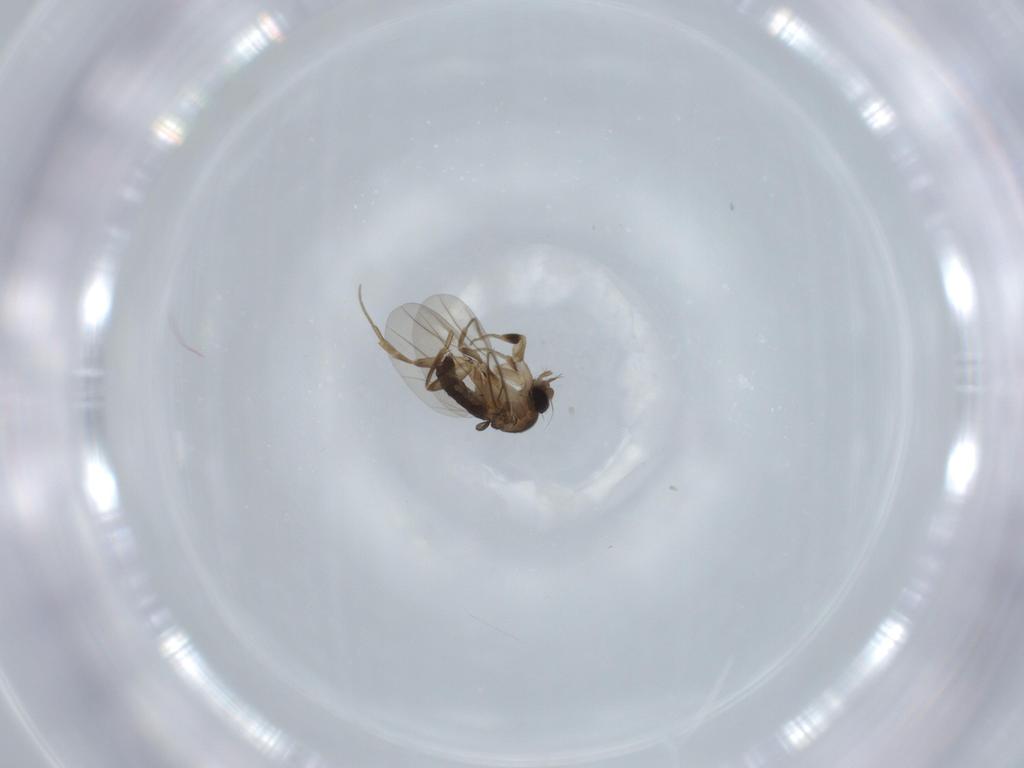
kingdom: Animalia
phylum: Arthropoda
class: Insecta
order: Diptera
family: Phoridae
